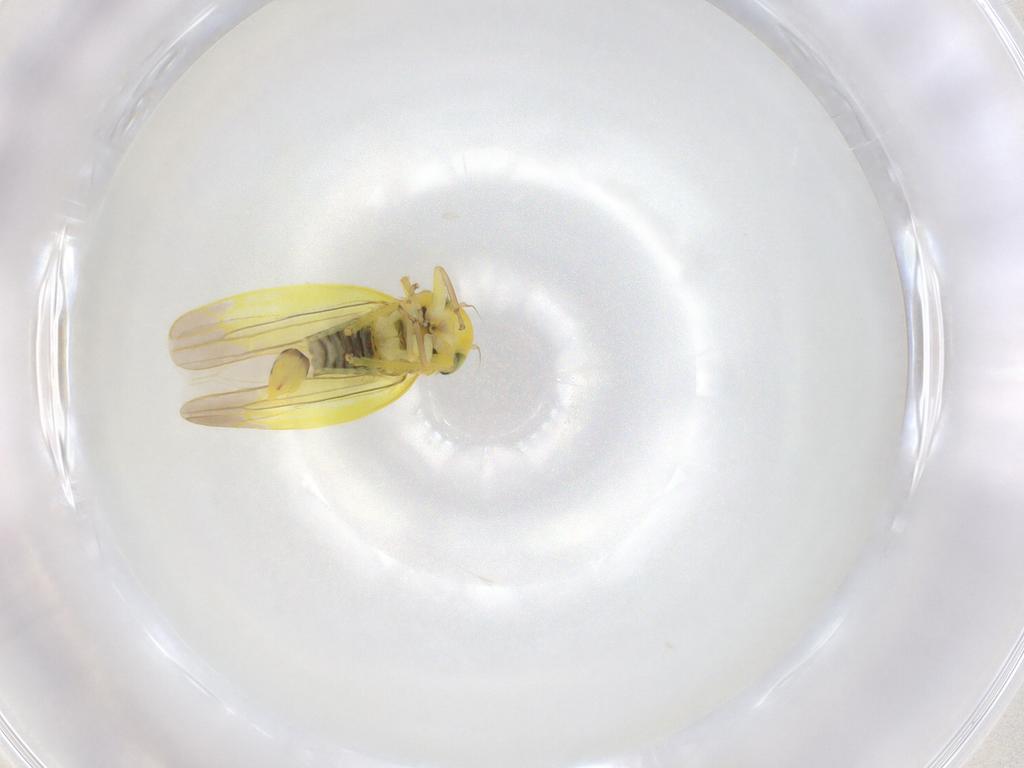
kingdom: Animalia
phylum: Arthropoda
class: Insecta
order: Hemiptera
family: Cicadellidae
